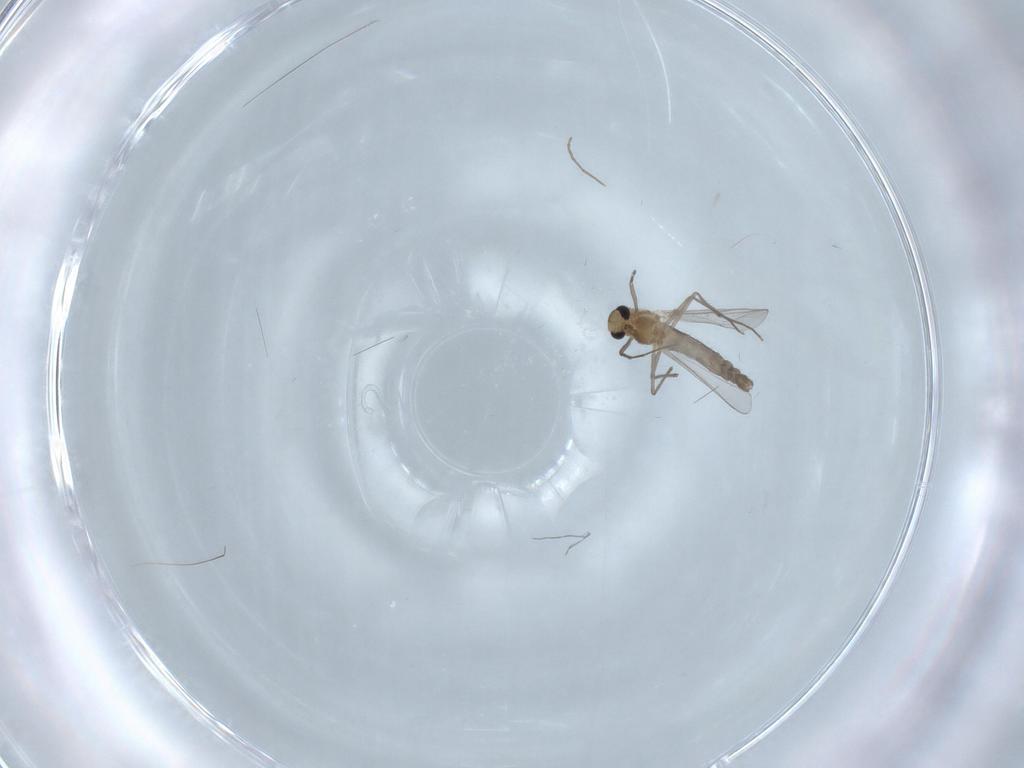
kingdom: Animalia
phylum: Arthropoda
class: Insecta
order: Diptera
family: Chironomidae
